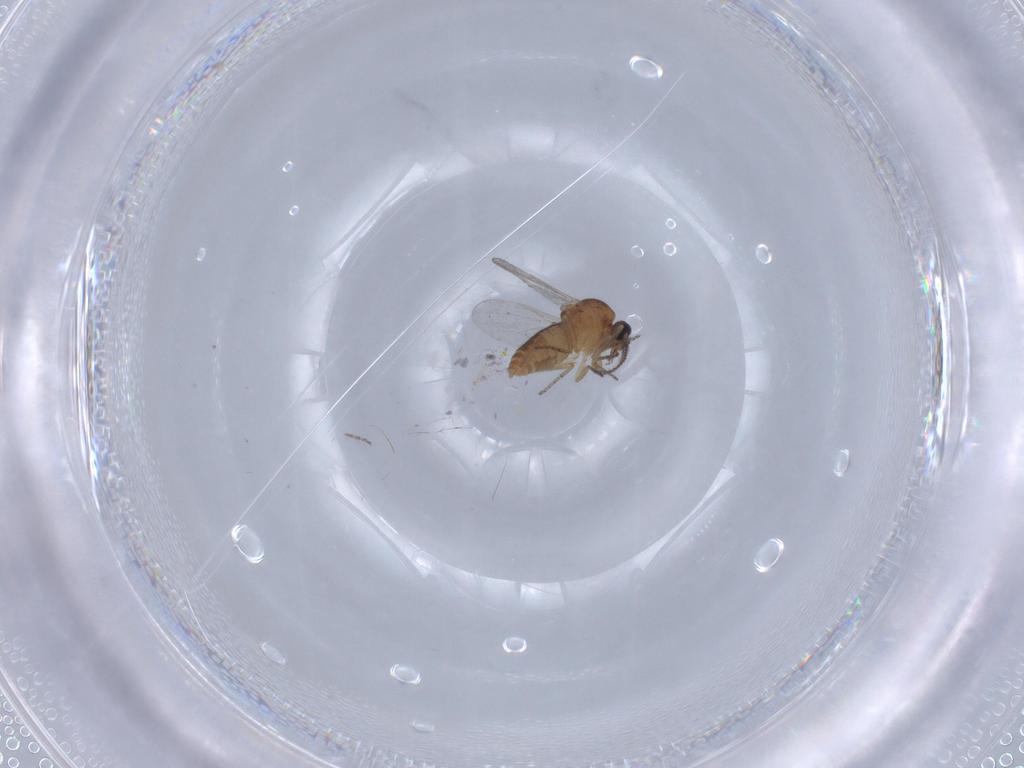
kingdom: Animalia
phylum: Arthropoda
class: Insecta
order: Diptera
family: Ceratopogonidae
